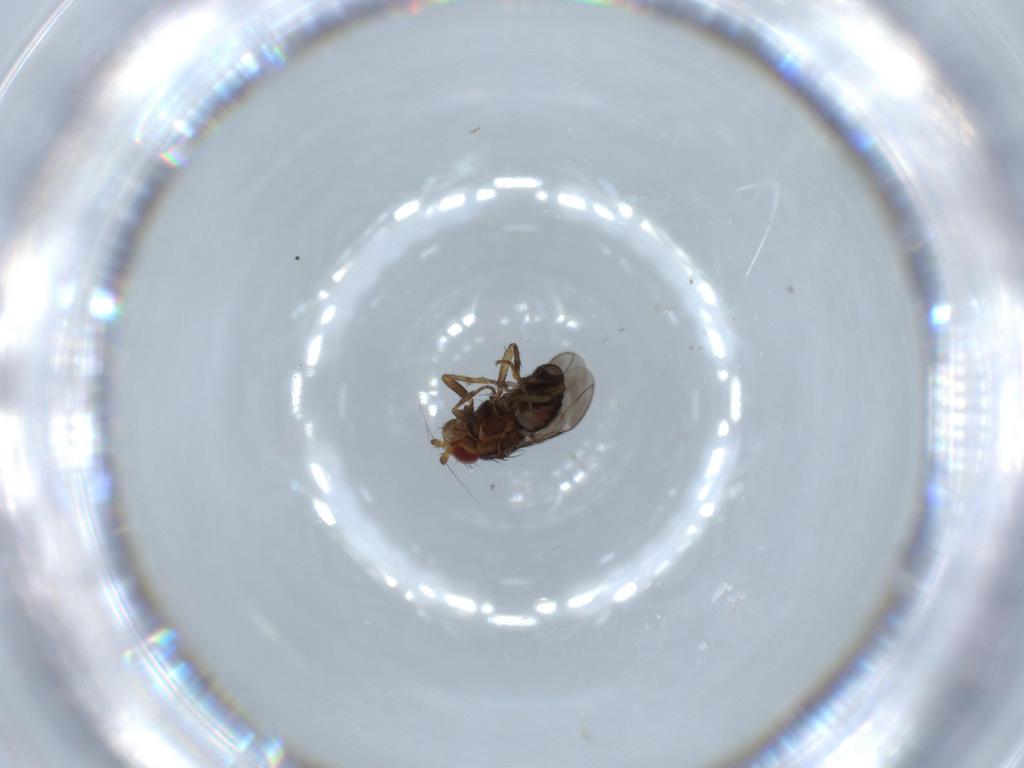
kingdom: Animalia
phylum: Arthropoda
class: Insecta
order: Diptera
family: Sphaeroceridae
